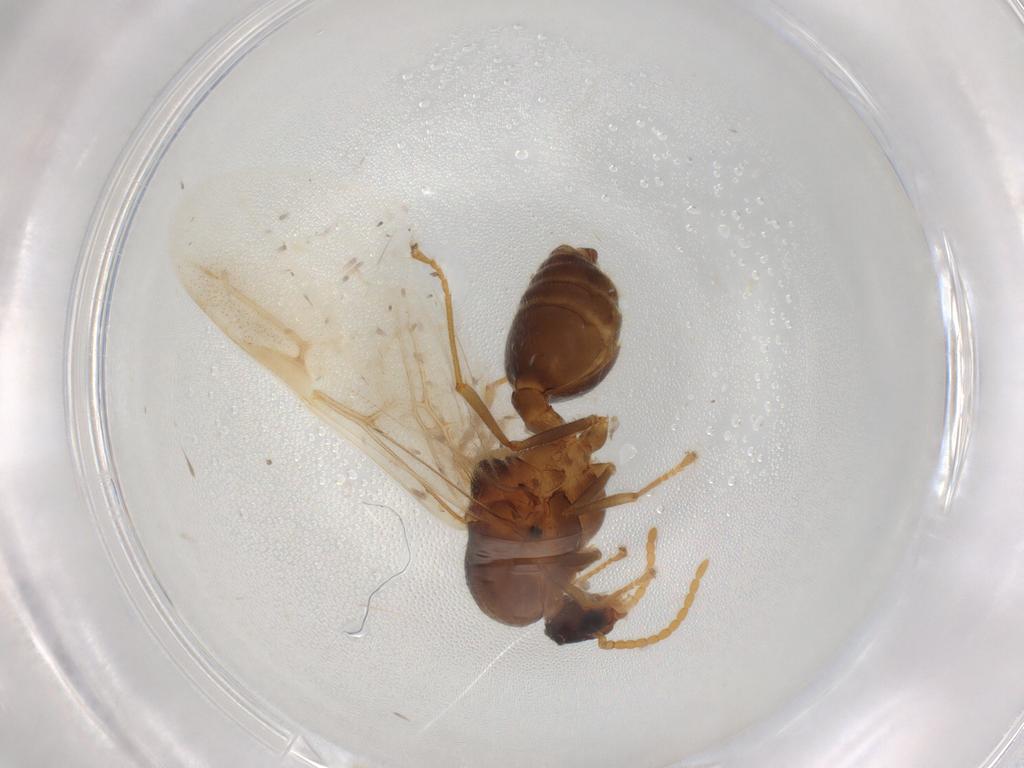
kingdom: Animalia
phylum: Arthropoda
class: Insecta
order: Hymenoptera
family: Formicidae
